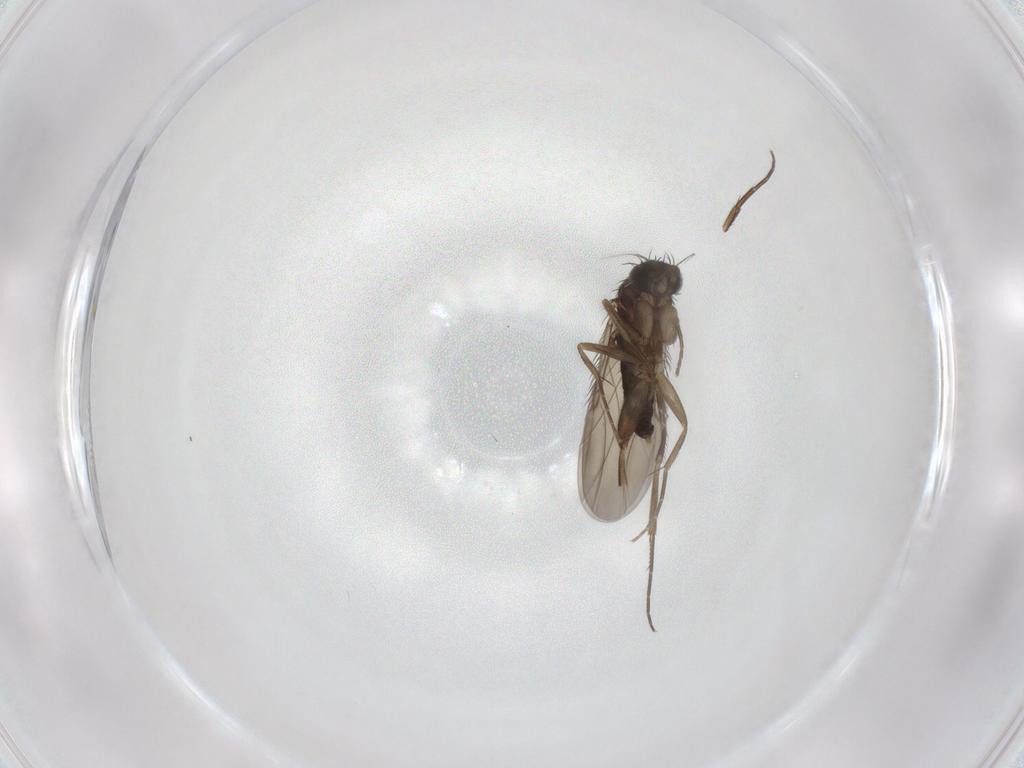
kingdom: Animalia
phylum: Arthropoda
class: Insecta
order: Diptera
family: Phoridae
